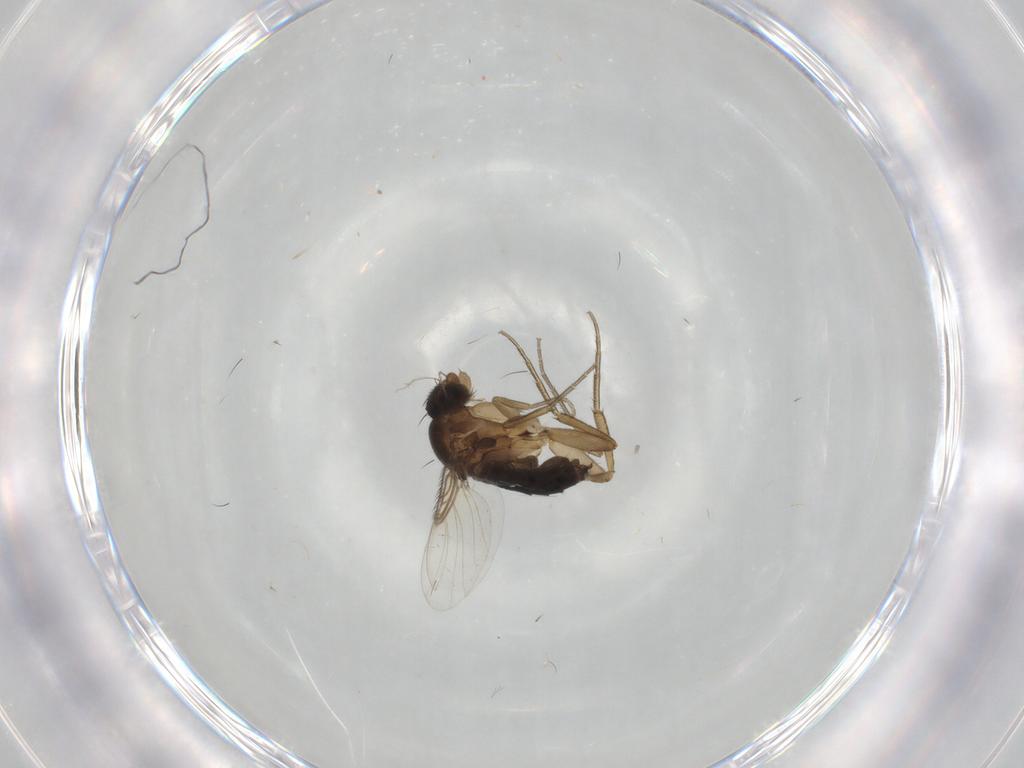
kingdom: Animalia
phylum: Arthropoda
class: Insecta
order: Diptera
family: Phoridae
